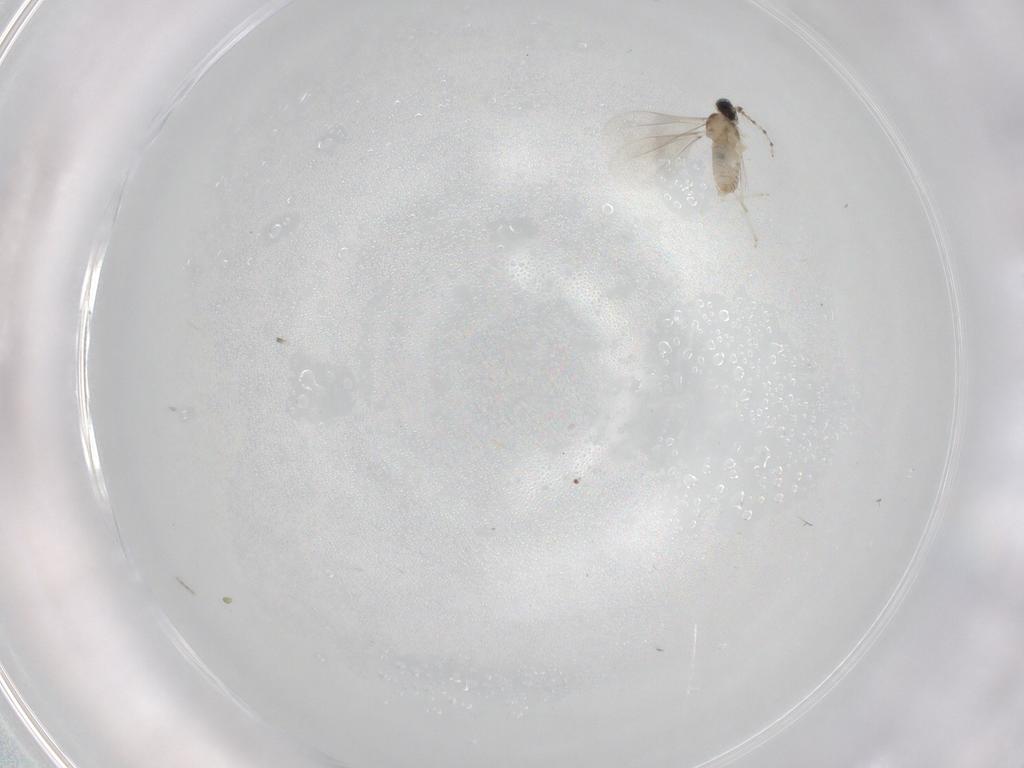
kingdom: Animalia
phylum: Arthropoda
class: Insecta
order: Diptera
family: Cecidomyiidae
